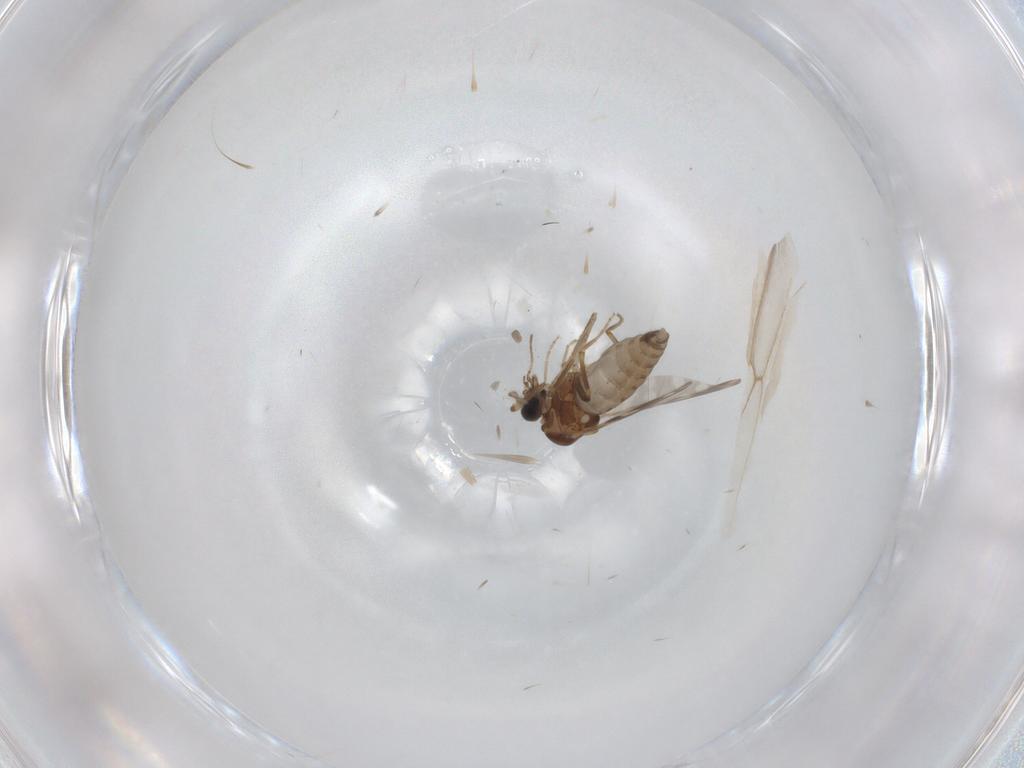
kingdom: Animalia
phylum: Arthropoda
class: Insecta
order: Diptera
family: Ceratopogonidae
